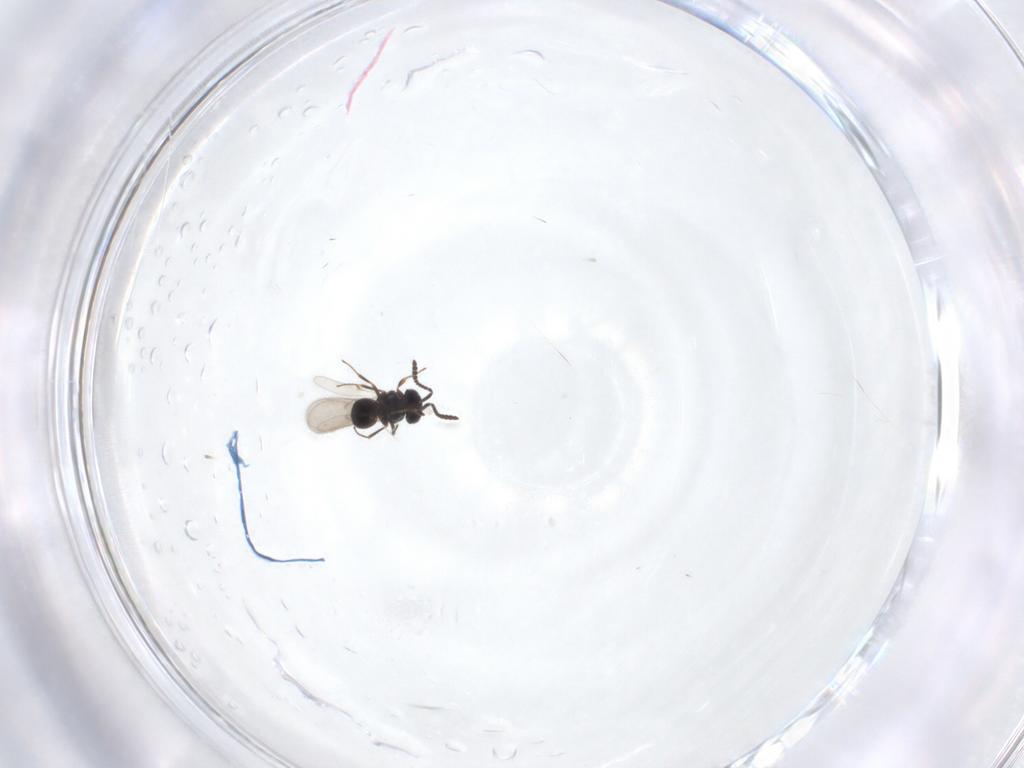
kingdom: Animalia
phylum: Arthropoda
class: Insecta
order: Hymenoptera
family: Scelionidae
